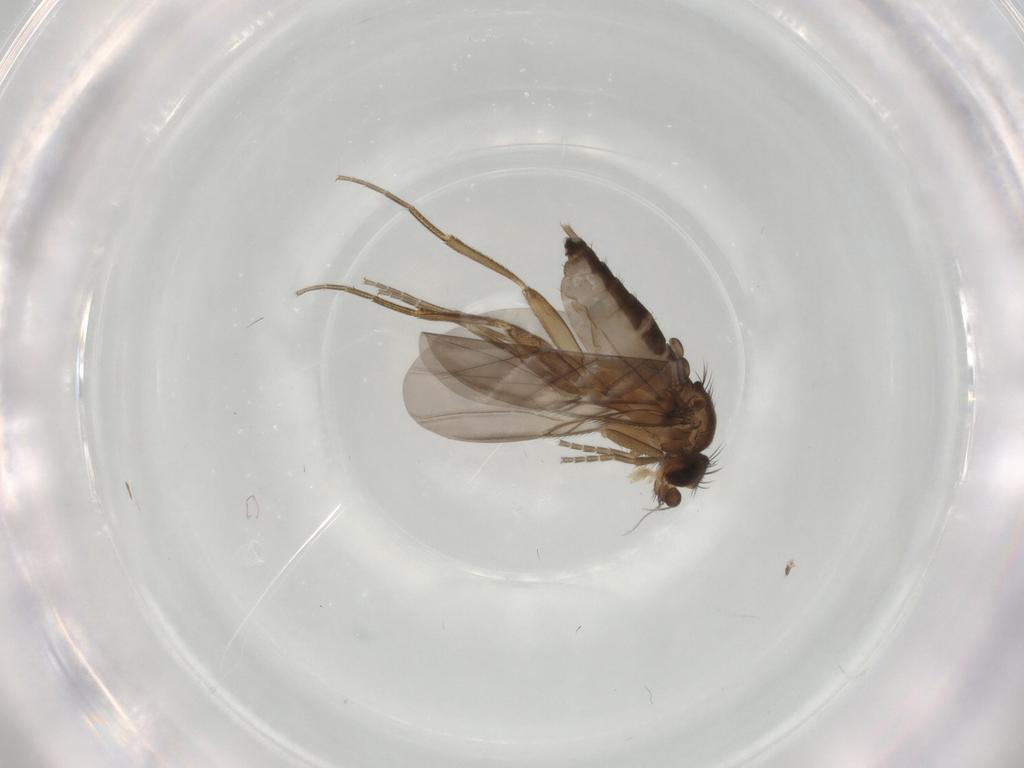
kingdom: Animalia
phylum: Arthropoda
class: Insecta
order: Diptera
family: Phoridae
